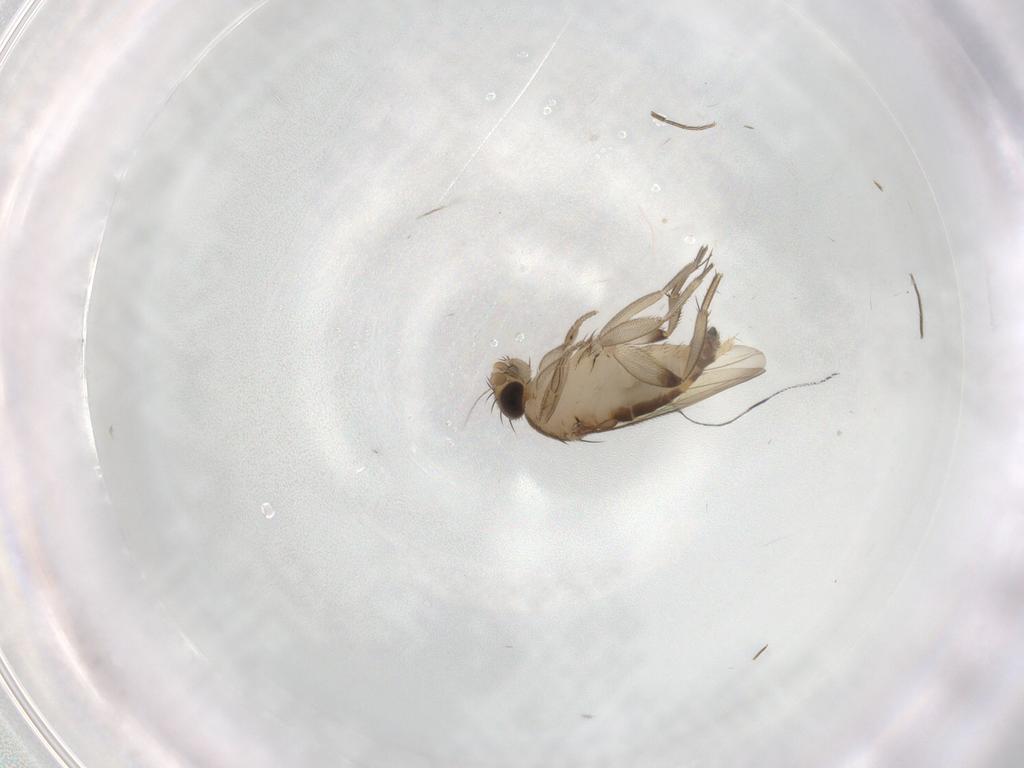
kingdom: Animalia
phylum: Arthropoda
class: Insecta
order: Diptera
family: Phoridae
